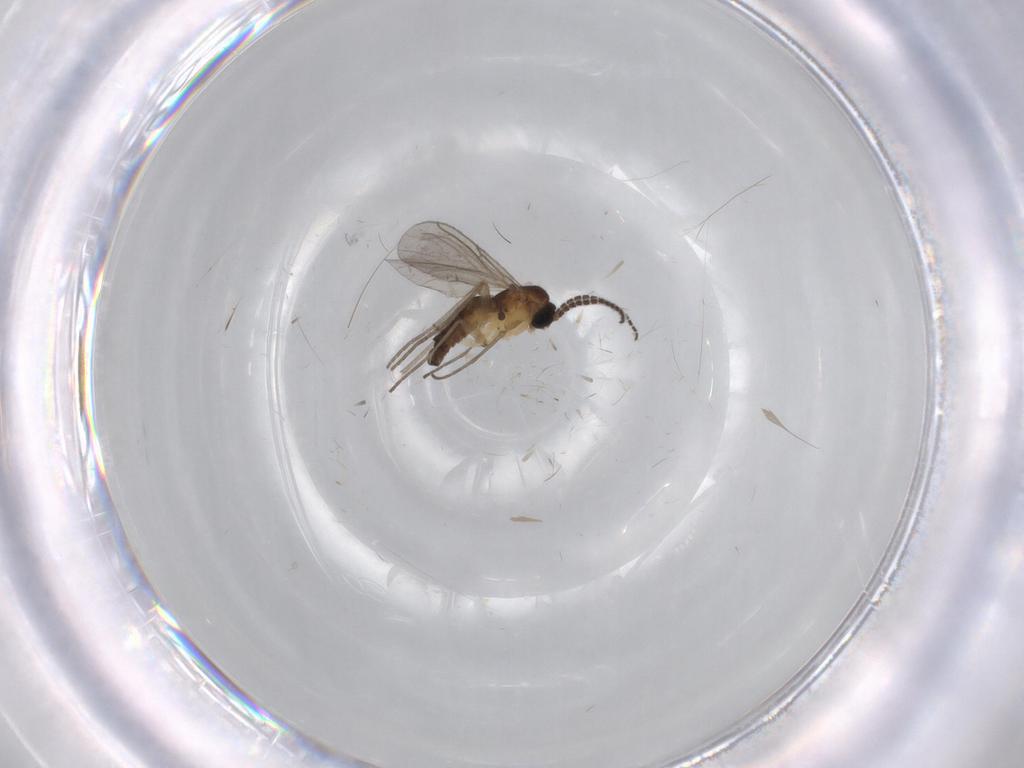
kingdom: Animalia
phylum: Arthropoda
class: Insecta
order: Diptera
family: Sciaridae
